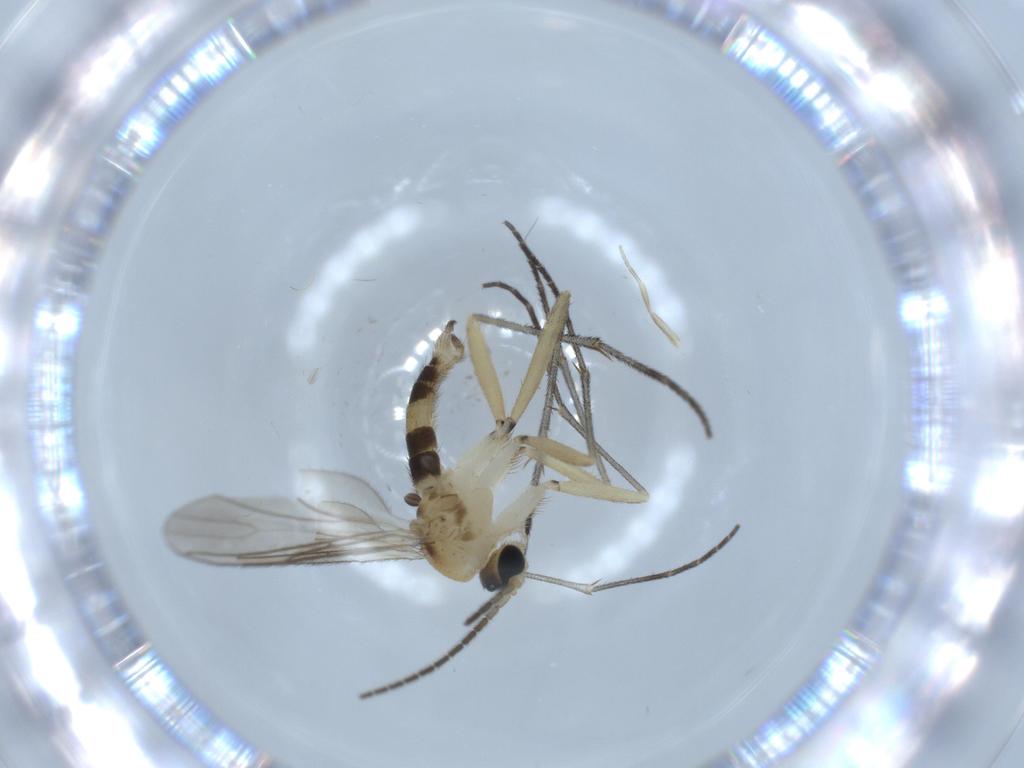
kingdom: Animalia
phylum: Arthropoda
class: Insecta
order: Diptera
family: Sciaridae
